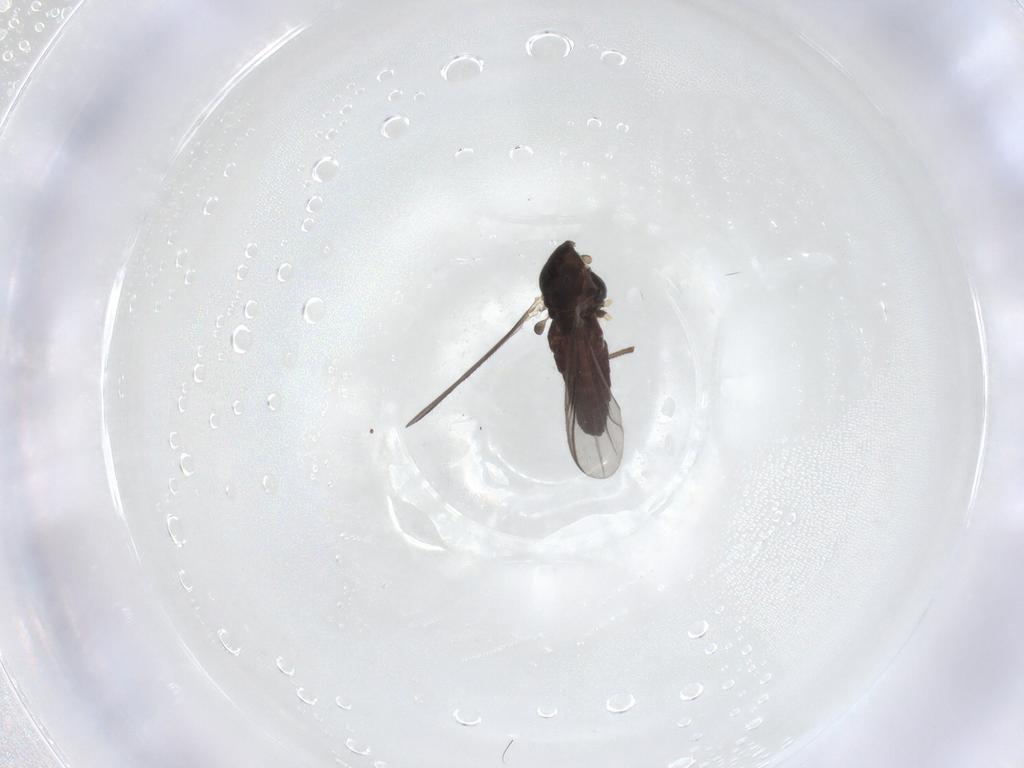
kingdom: Animalia
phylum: Arthropoda
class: Insecta
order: Diptera
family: Chironomidae
